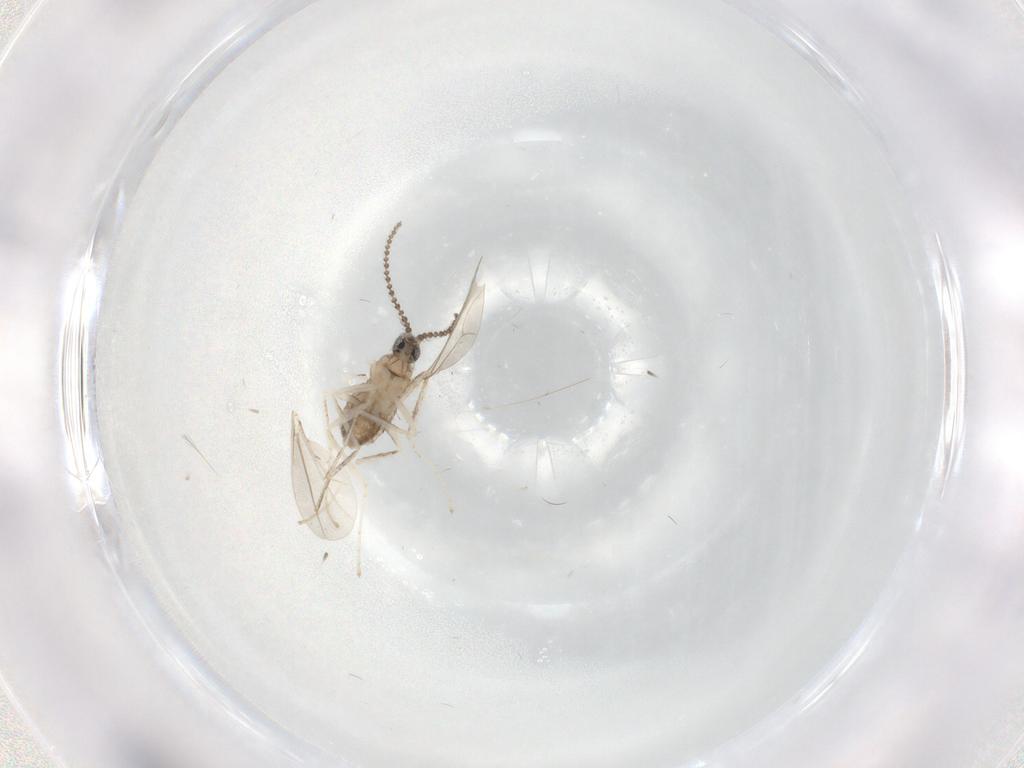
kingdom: Animalia
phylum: Arthropoda
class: Insecta
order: Diptera
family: Cecidomyiidae
